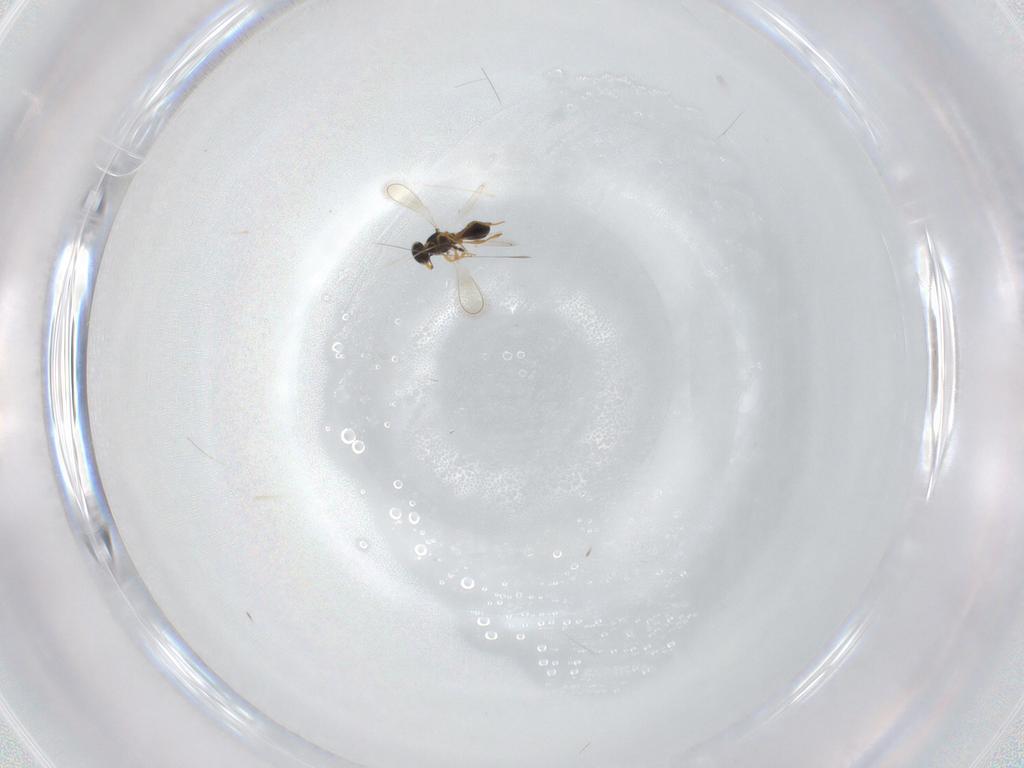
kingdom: Animalia
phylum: Arthropoda
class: Insecta
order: Hymenoptera
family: Platygastridae
